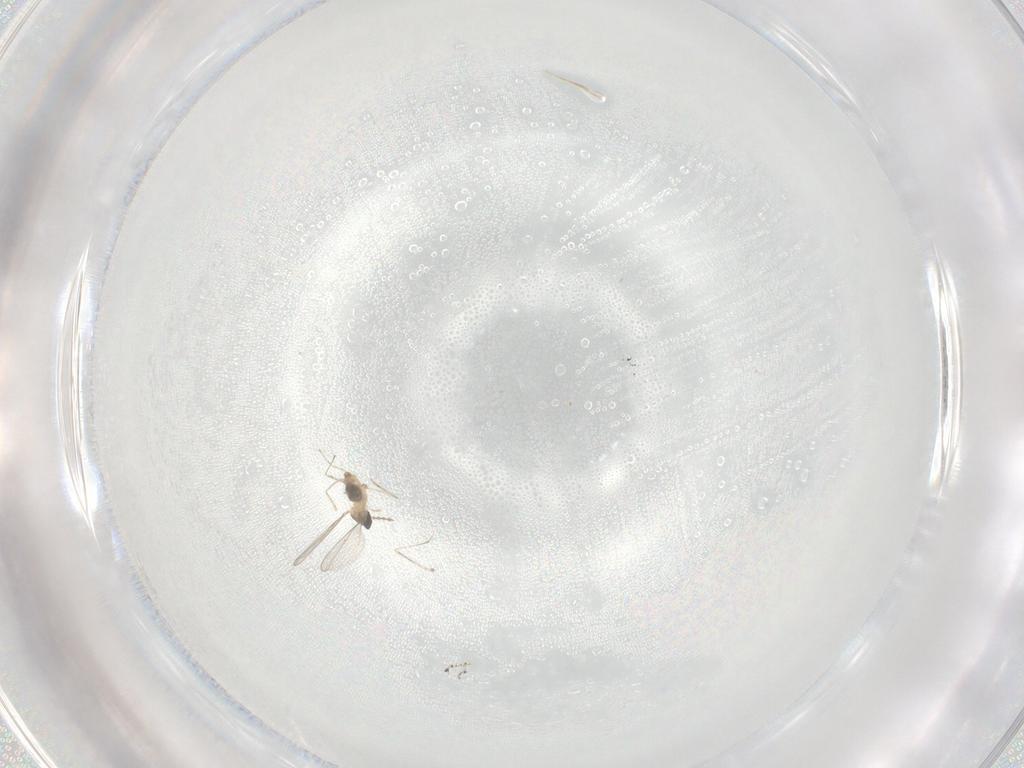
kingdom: Animalia
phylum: Arthropoda
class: Insecta
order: Diptera
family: Cecidomyiidae
